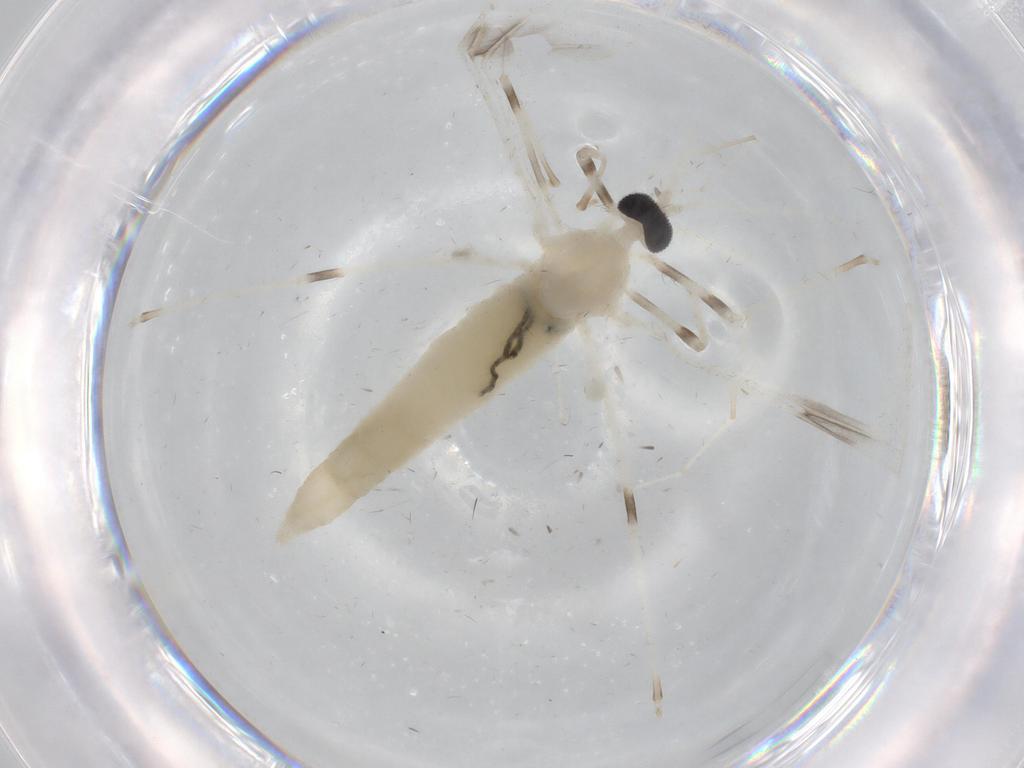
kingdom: Animalia
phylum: Arthropoda
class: Insecta
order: Diptera
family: Cecidomyiidae
